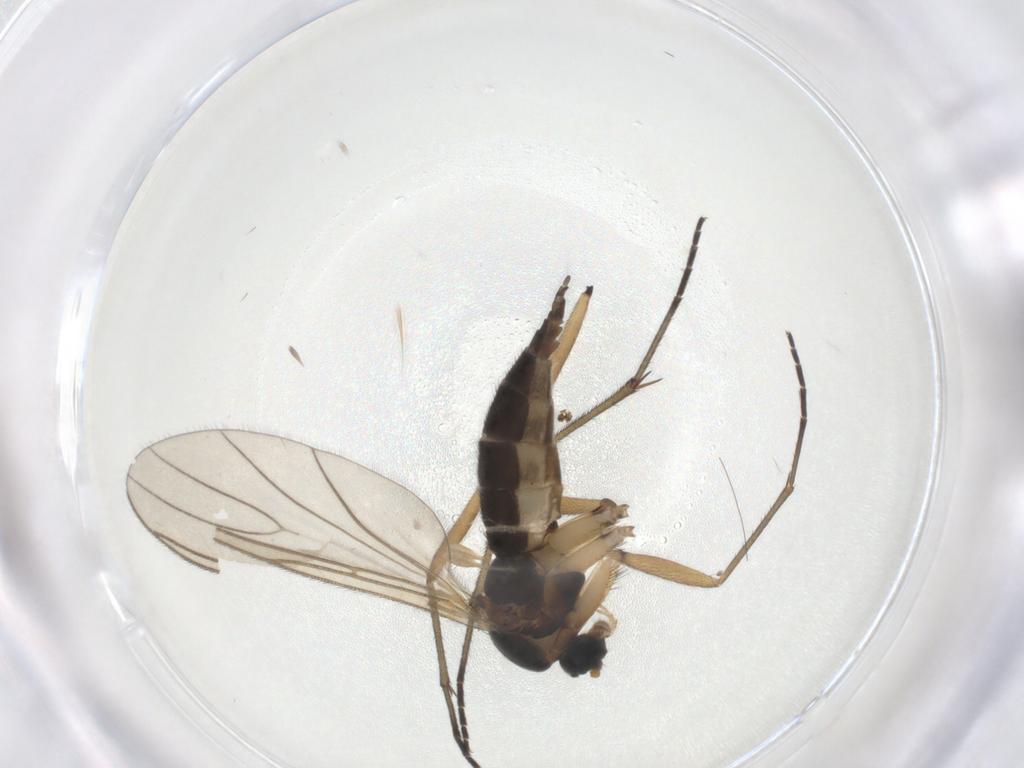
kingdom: Animalia
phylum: Arthropoda
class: Insecta
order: Diptera
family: Sciaridae
